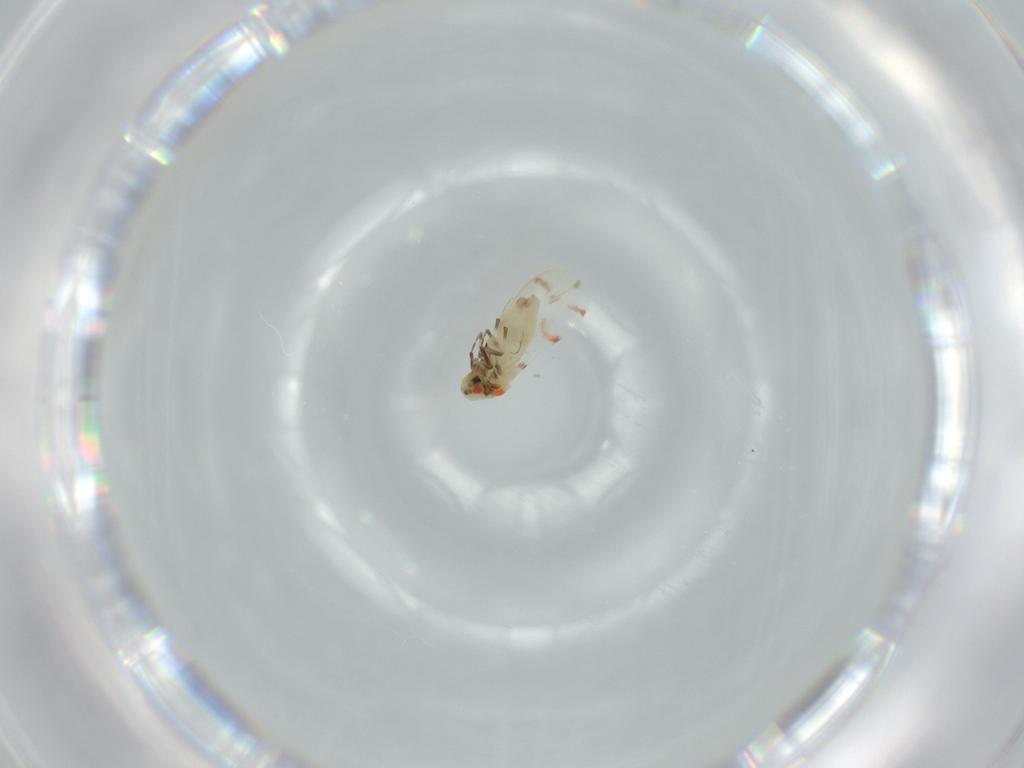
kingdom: Animalia
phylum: Arthropoda
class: Insecta
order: Hemiptera
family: Aleyrodidae
